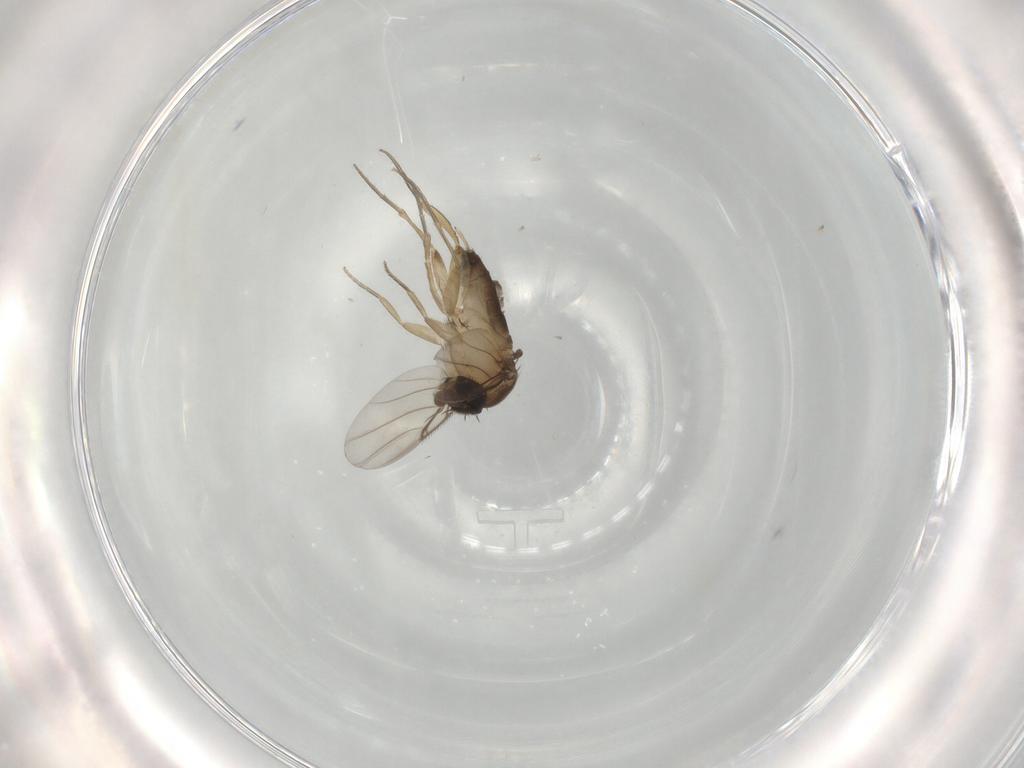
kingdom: Animalia
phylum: Arthropoda
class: Insecta
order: Diptera
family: Phoridae
